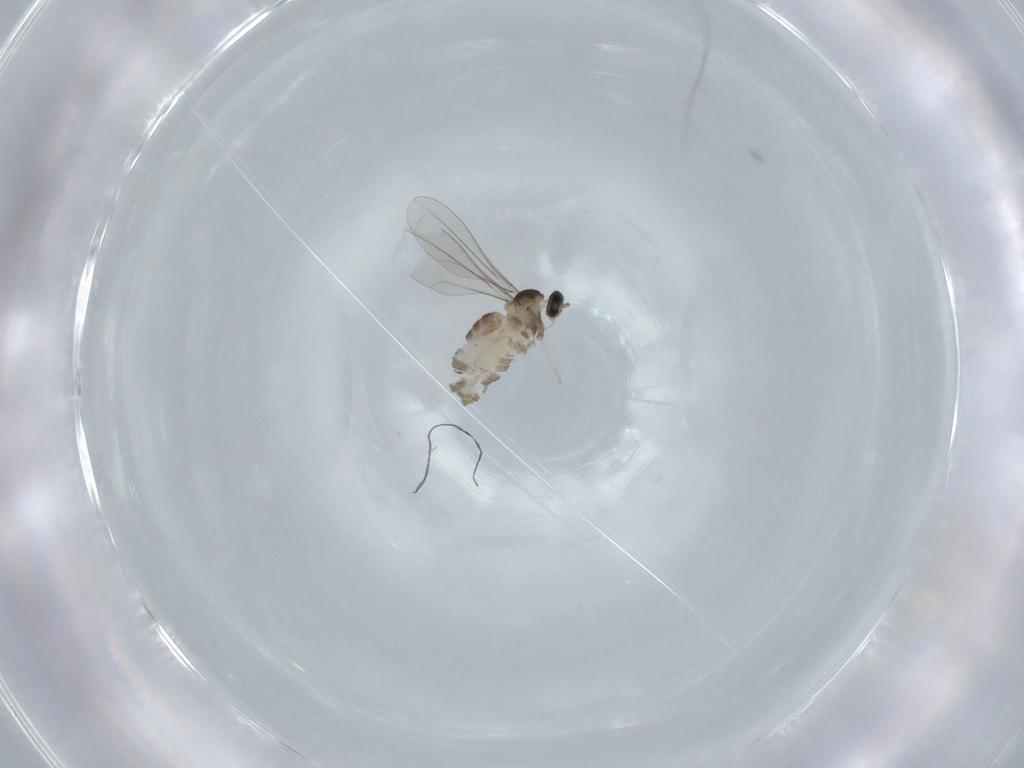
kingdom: Animalia
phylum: Arthropoda
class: Insecta
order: Diptera
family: Cecidomyiidae
